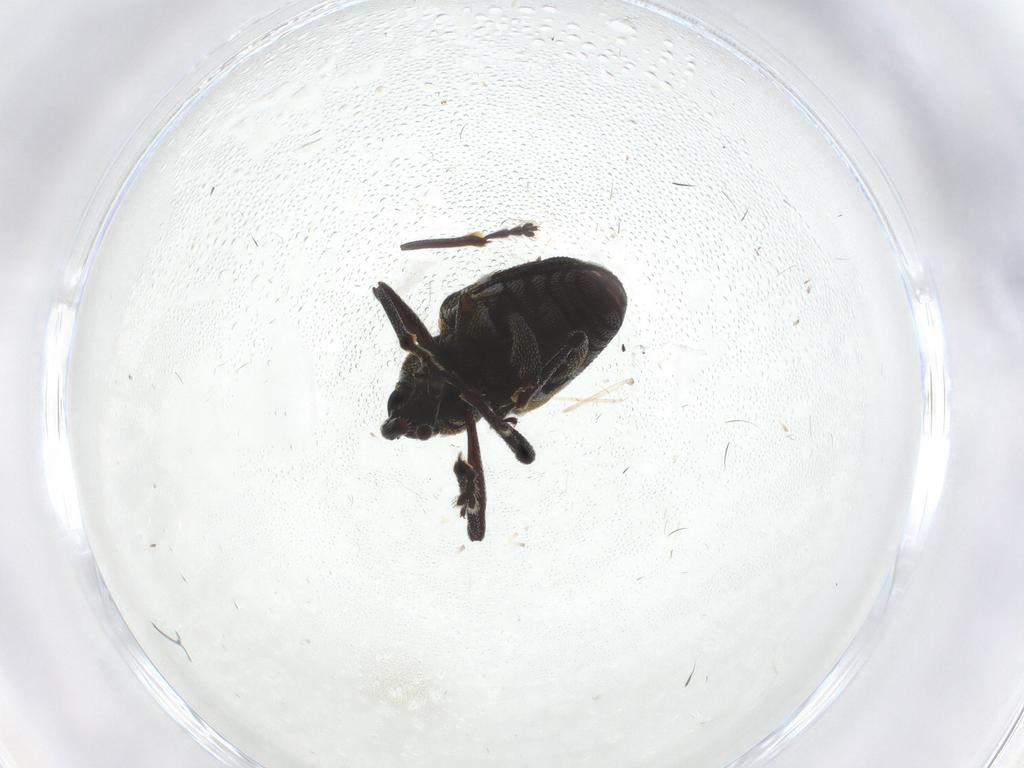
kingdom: Animalia
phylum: Arthropoda
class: Insecta
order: Coleoptera
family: Curculionidae
